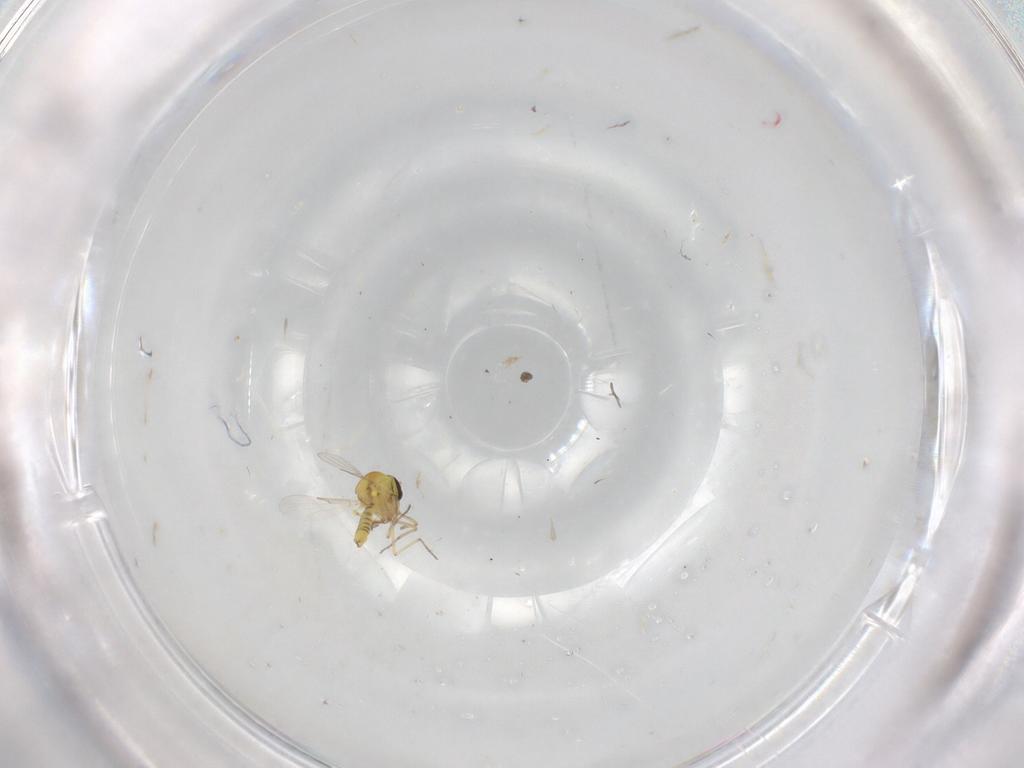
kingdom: Animalia
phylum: Arthropoda
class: Insecta
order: Diptera
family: Ceratopogonidae
